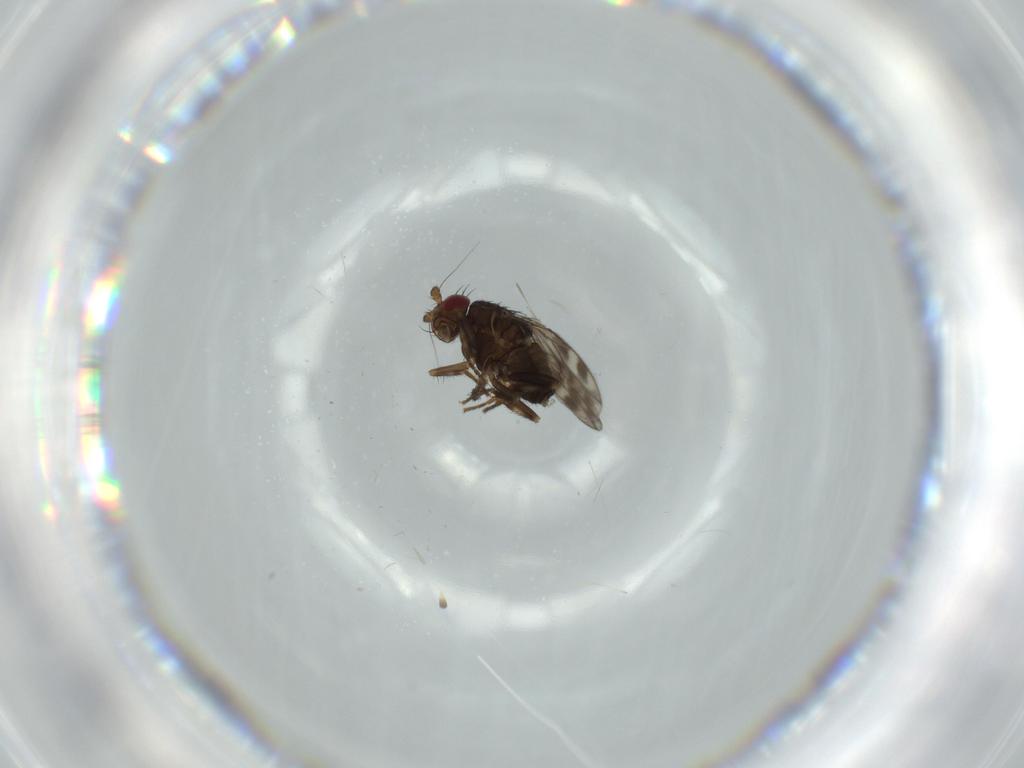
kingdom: Animalia
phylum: Arthropoda
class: Insecta
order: Diptera
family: Sphaeroceridae
